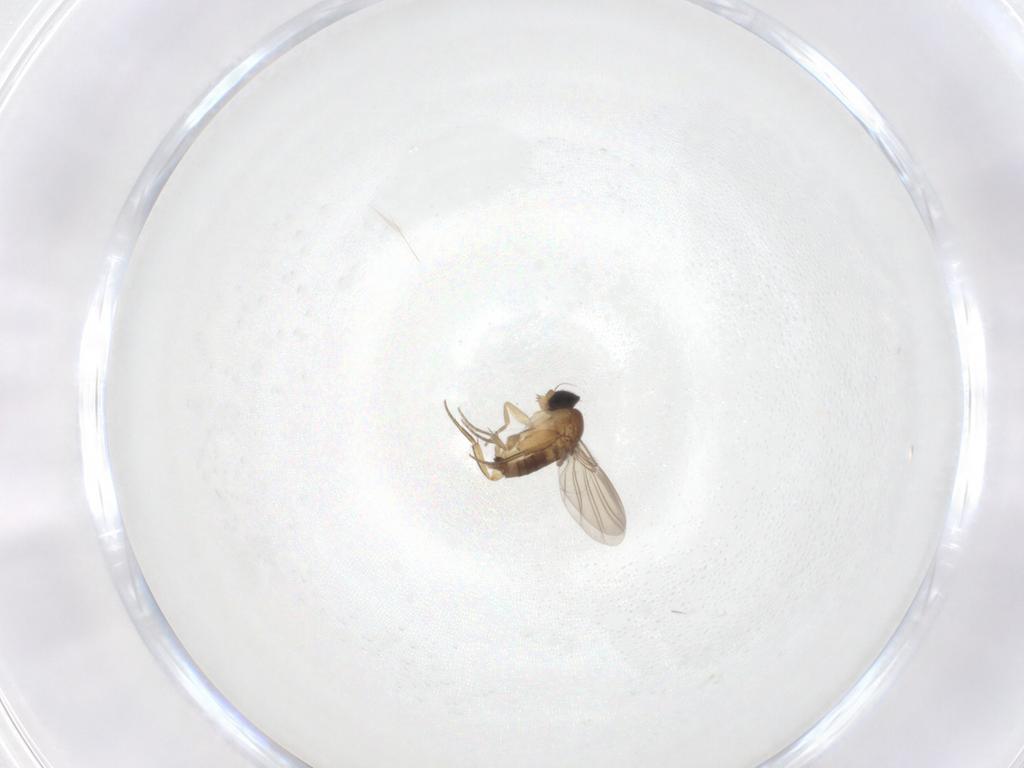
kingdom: Animalia
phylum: Arthropoda
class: Insecta
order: Diptera
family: Phoridae
